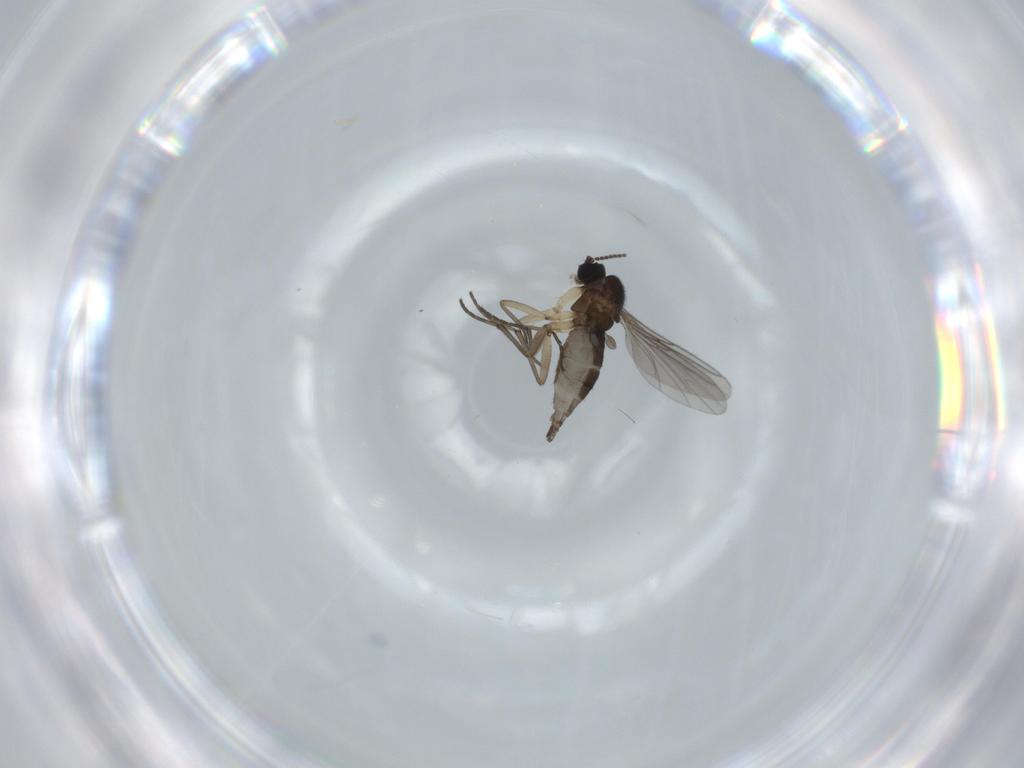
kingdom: Animalia
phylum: Arthropoda
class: Insecta
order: Diptera
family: Sciaridae
